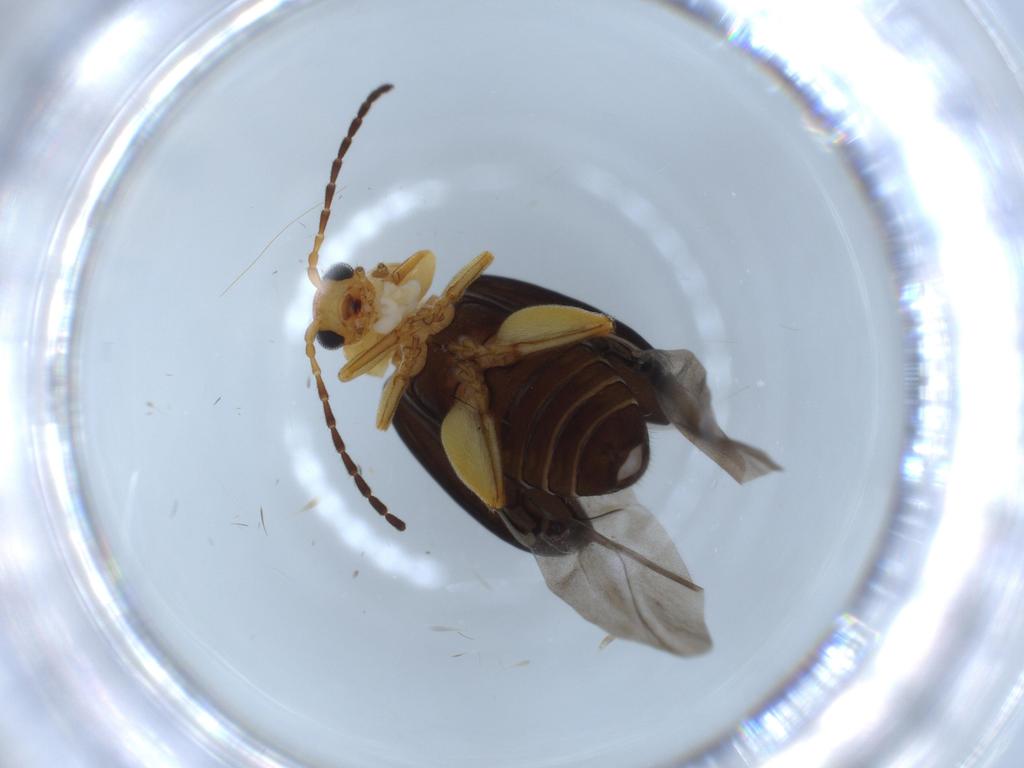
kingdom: Animalia
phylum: Arthropoda
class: Insecta
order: Coleoptera
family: Chrysomelidae
